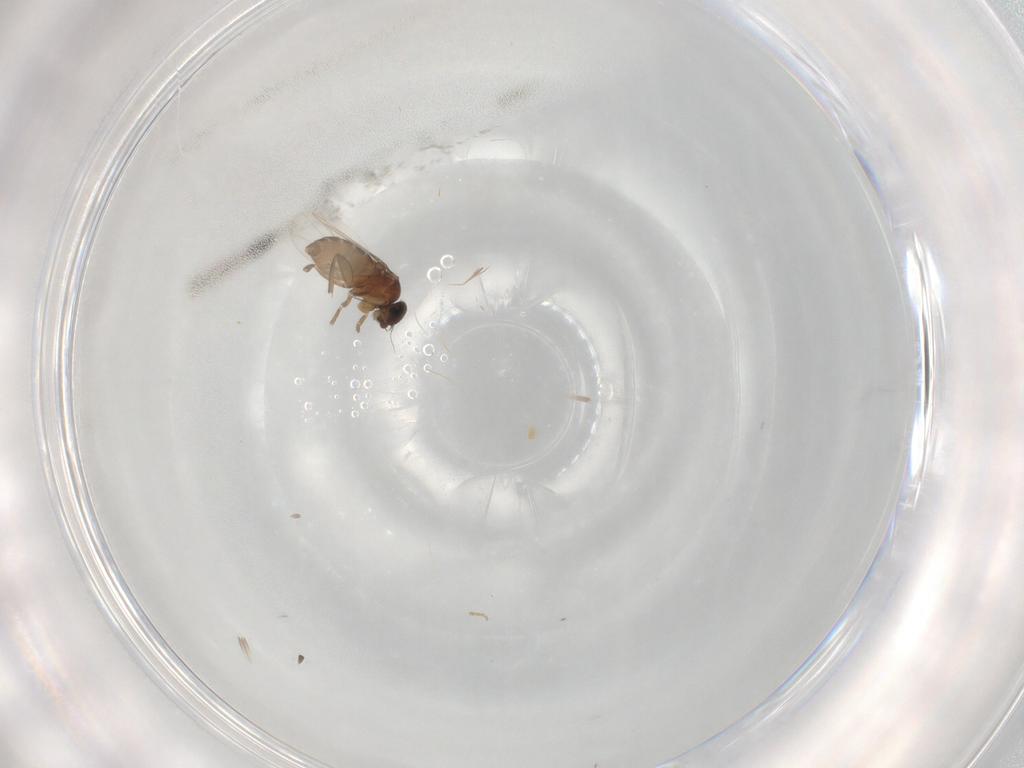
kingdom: Animalia
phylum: Arthropoda
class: Insecta
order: Diptera
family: Phoridae
